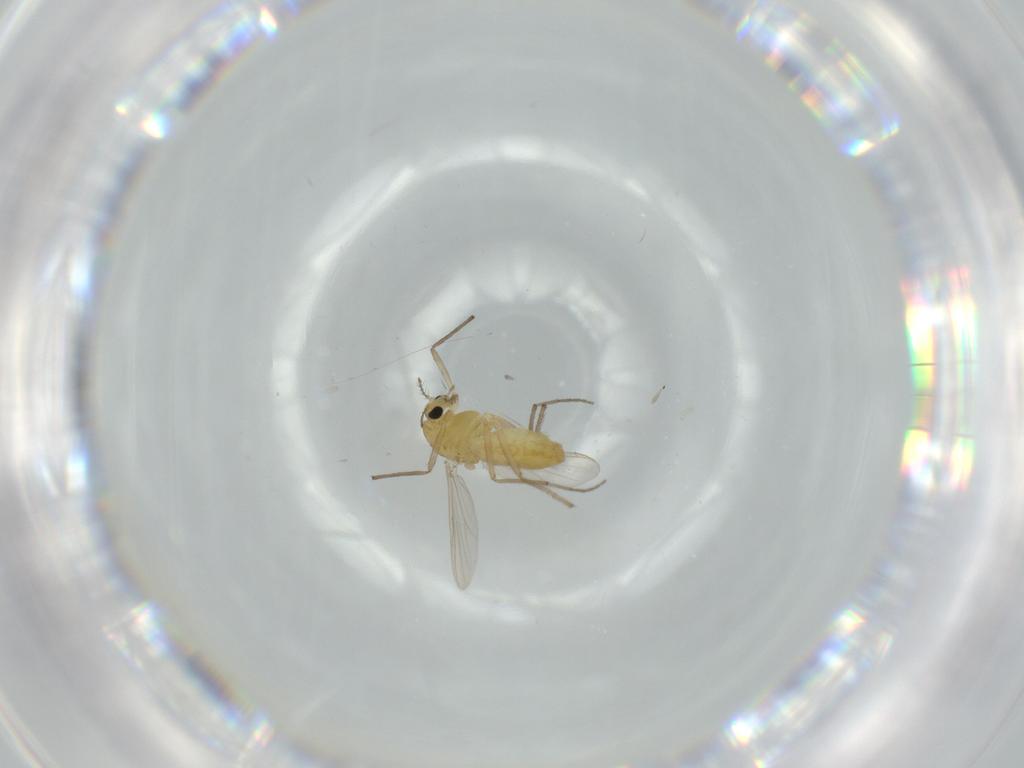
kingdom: Animalia
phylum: Arthropoda
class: Insecta
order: Diptera
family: Chironomidae
